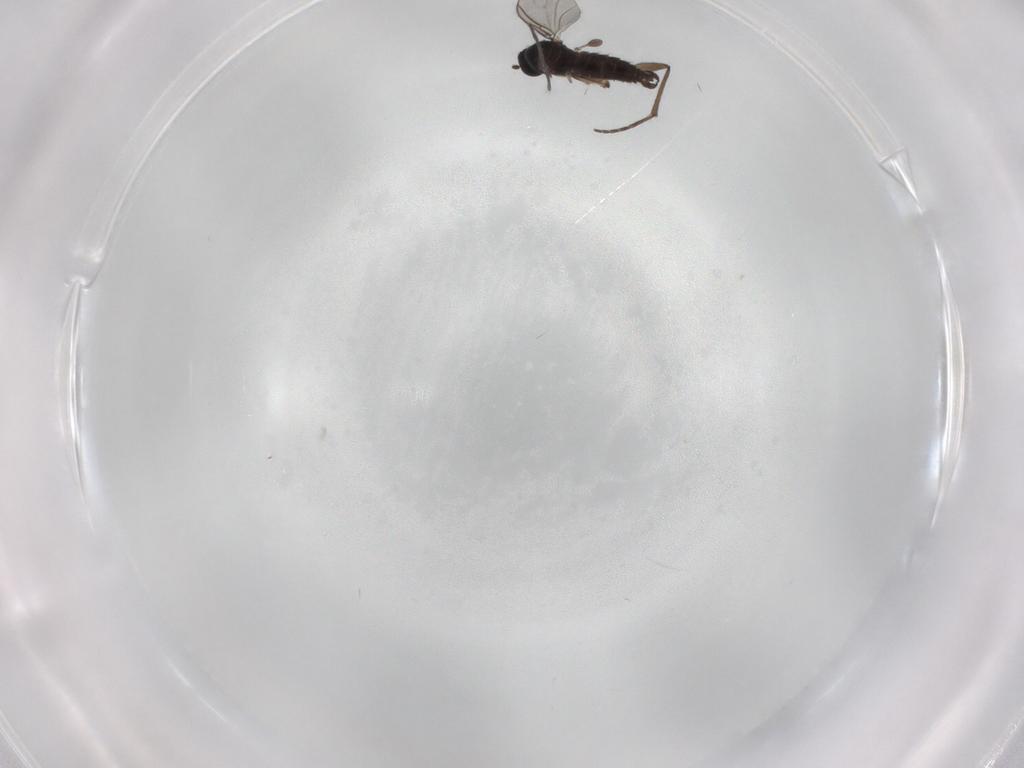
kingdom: Animalia
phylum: Arthropoda
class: Insecta
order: Diptera
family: Sciaridae
